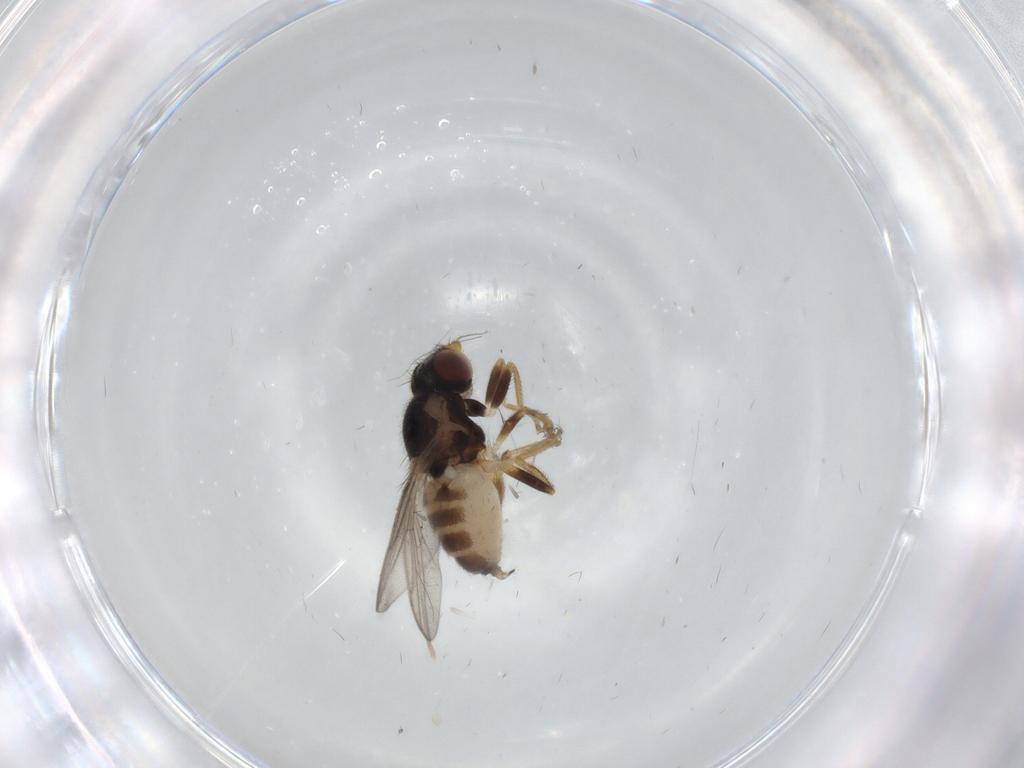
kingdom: Animalia
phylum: Arthropoda
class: Insecta
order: Diptera
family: Chloropidae
